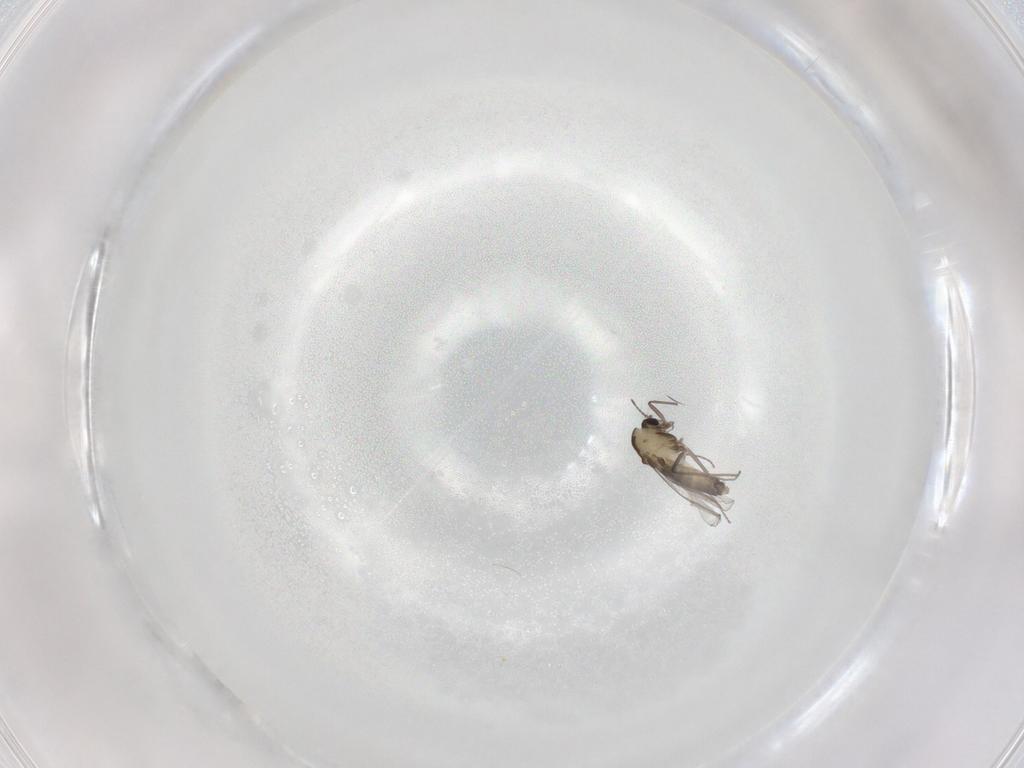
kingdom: Animalia
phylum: Arthropoda
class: Insecta
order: Diptera
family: Chironomidae
